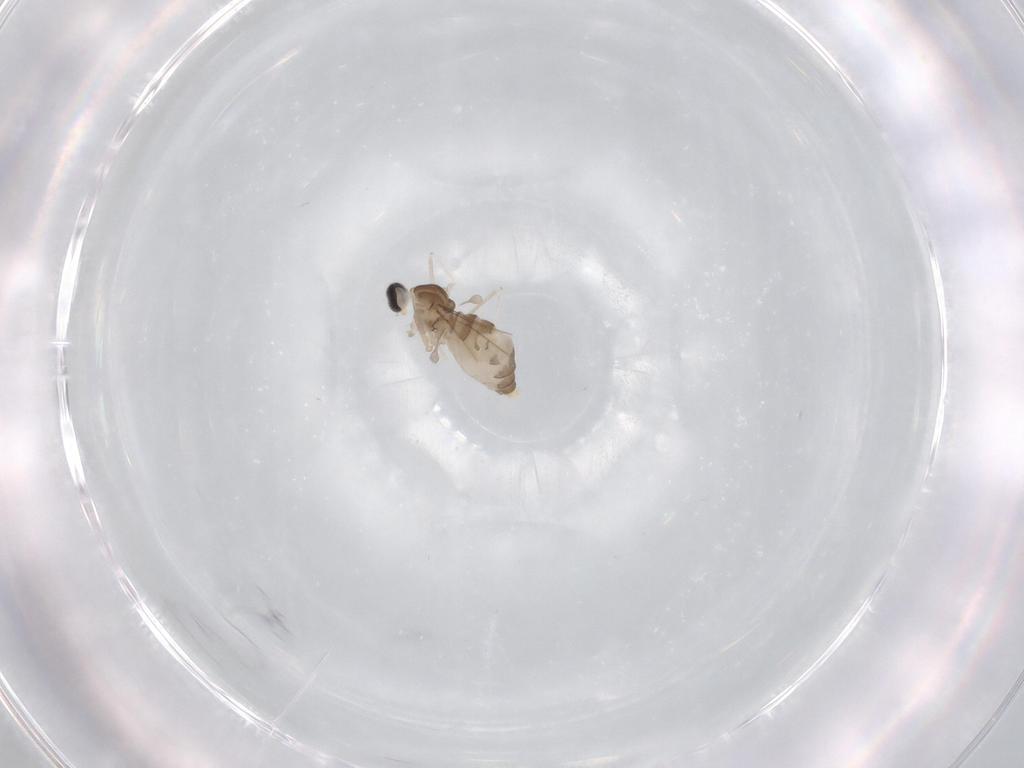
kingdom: Animalia
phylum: Arthropoda
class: Insecta
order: Diptera
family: Cecidomyiidae
